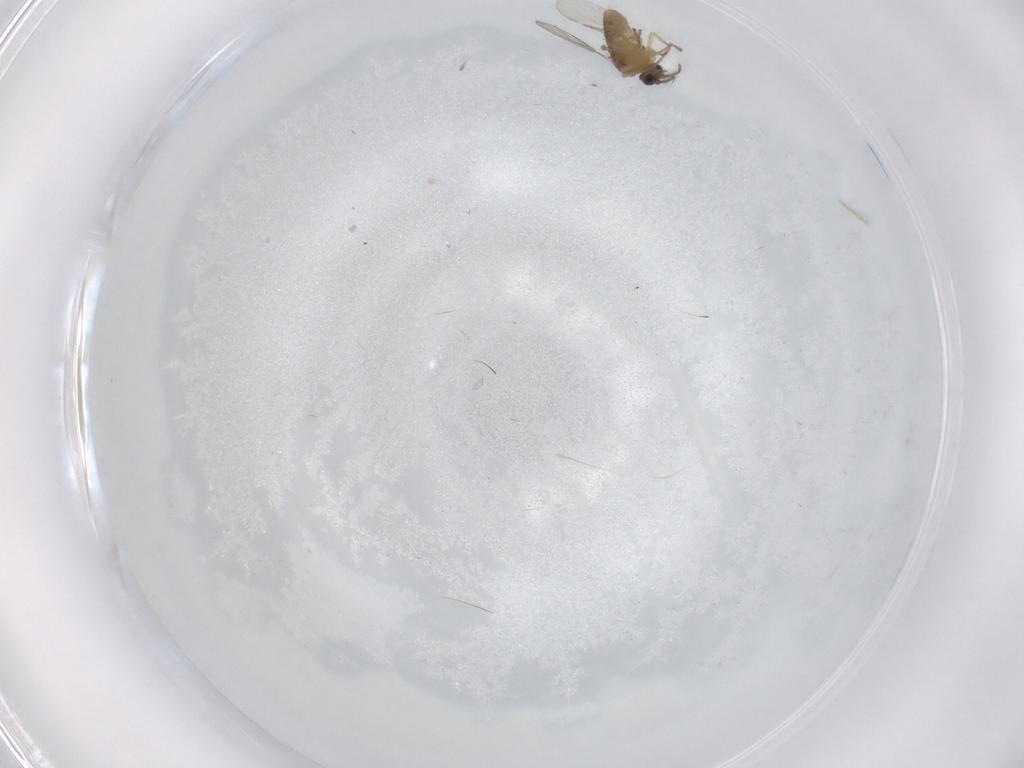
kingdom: Animalia
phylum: Arthropoda
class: Insecta
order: Diptera
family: Ceratopogonidae
